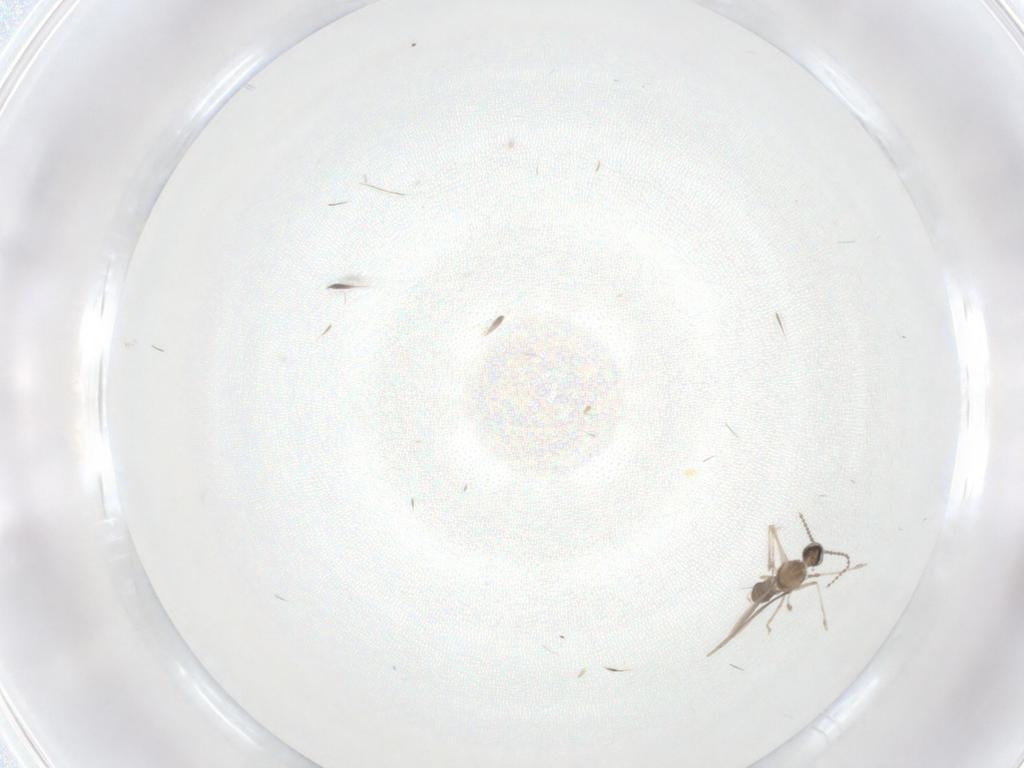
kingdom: Animalia
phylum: Arthropoda
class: Insecta
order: Diptera
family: Cecidomyiidae
